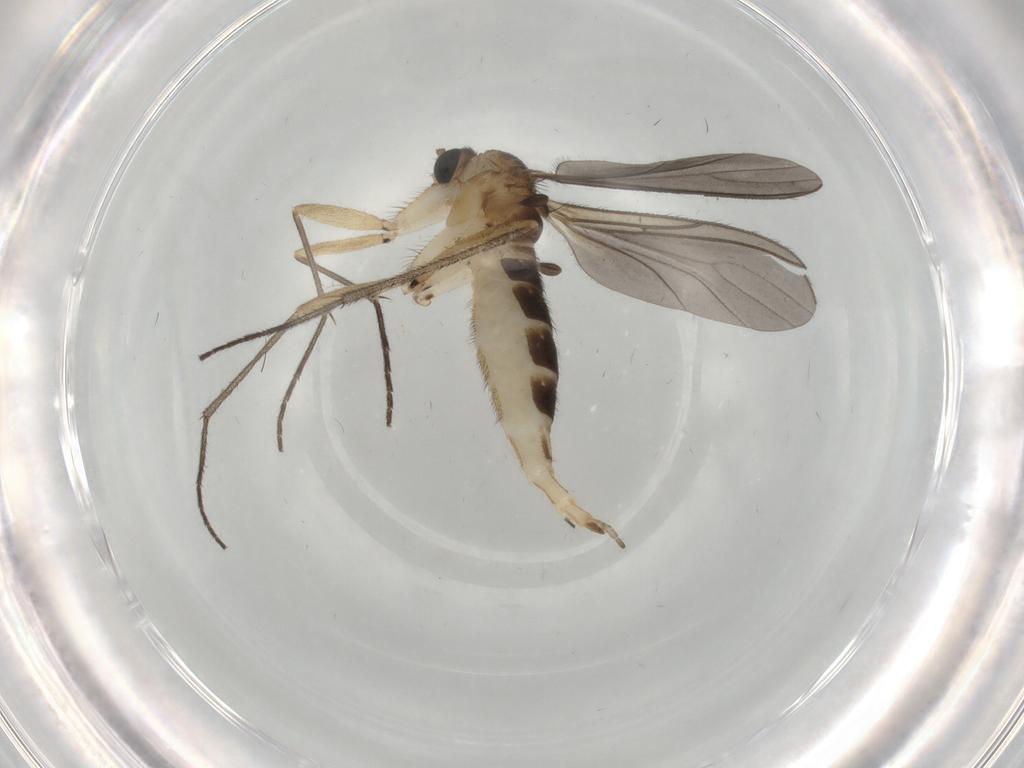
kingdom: Animalia
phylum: Arthropoda
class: Insecta
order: Diptera
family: Sciaridae
